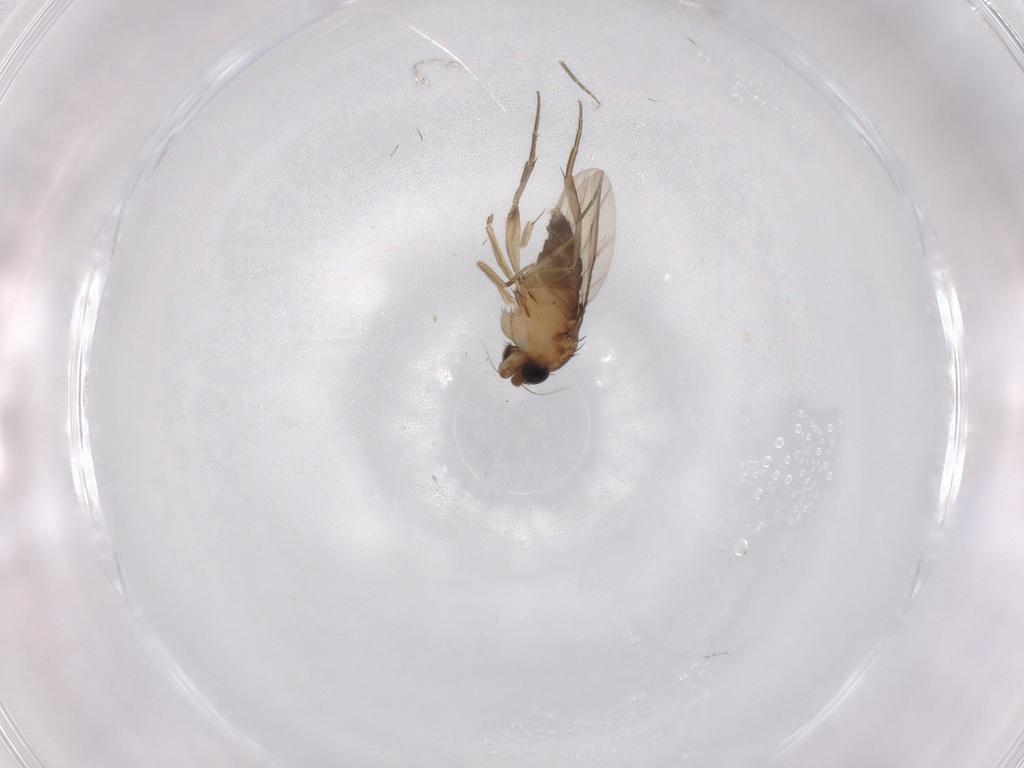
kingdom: Animalia
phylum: Arthropoda
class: Insecta
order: Diptera
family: Phoridae
